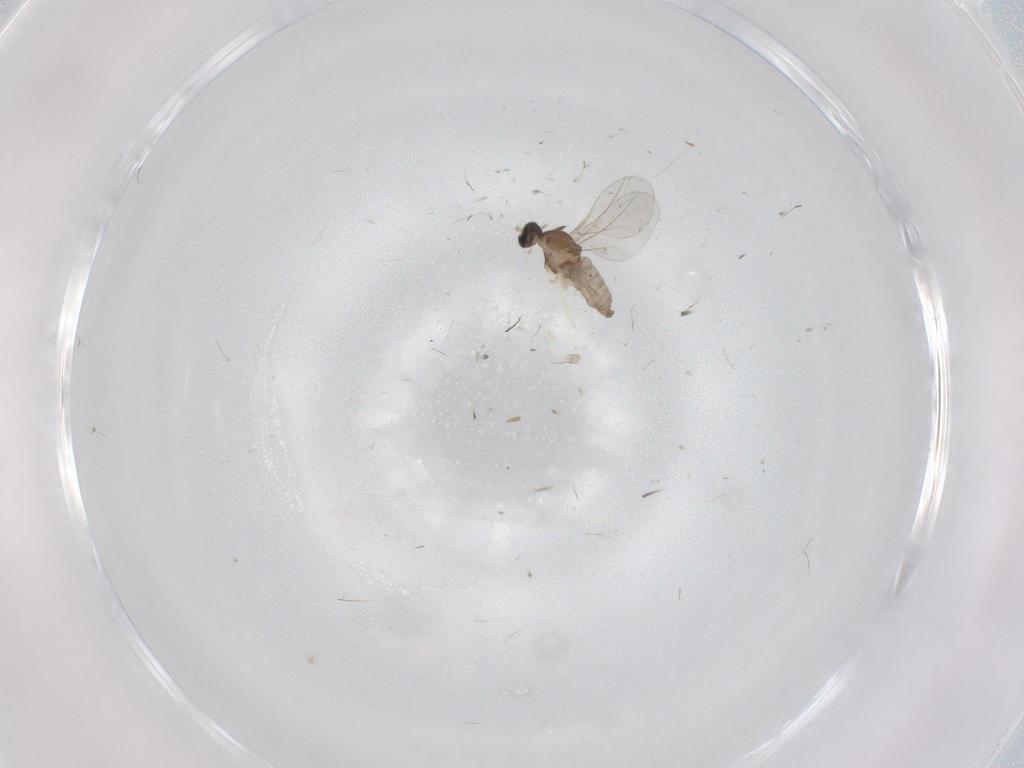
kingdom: Animalia
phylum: Arthropoda
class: Insecta
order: Diptera
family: Cecidomyiidae
